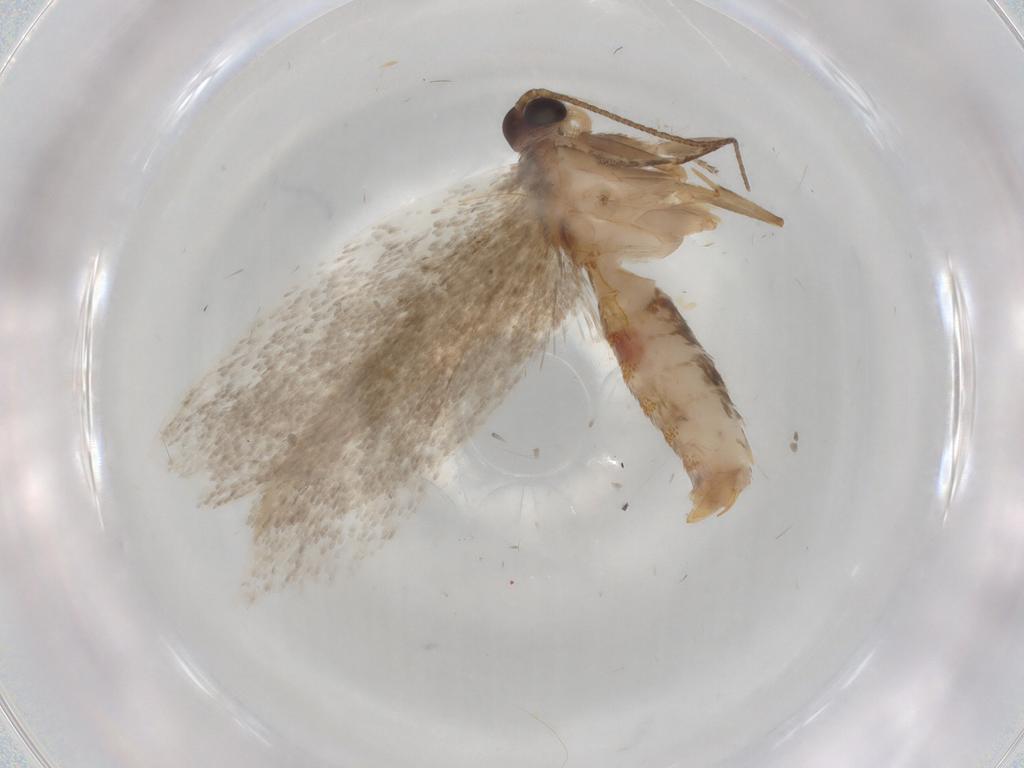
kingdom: Animalia
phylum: Arthropoda
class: Insecta
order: Lepidoptera
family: Oecophoridae
